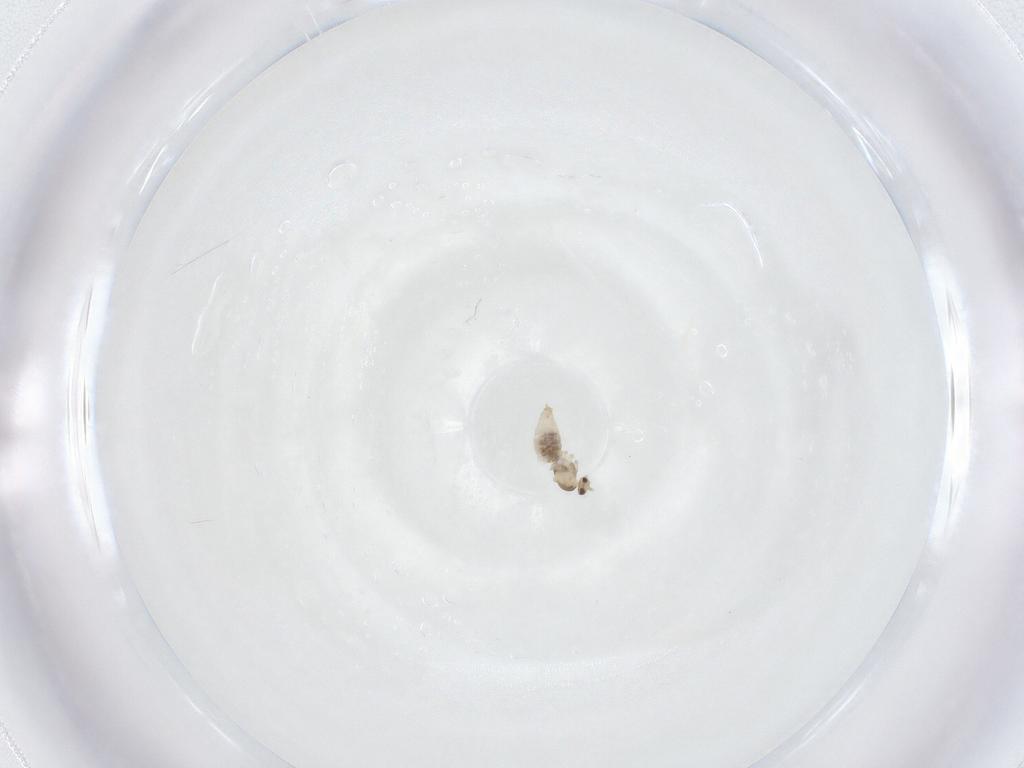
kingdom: Animalia
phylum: Arthropoda
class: Insecta
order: Diptera
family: Cecidomyiidae
